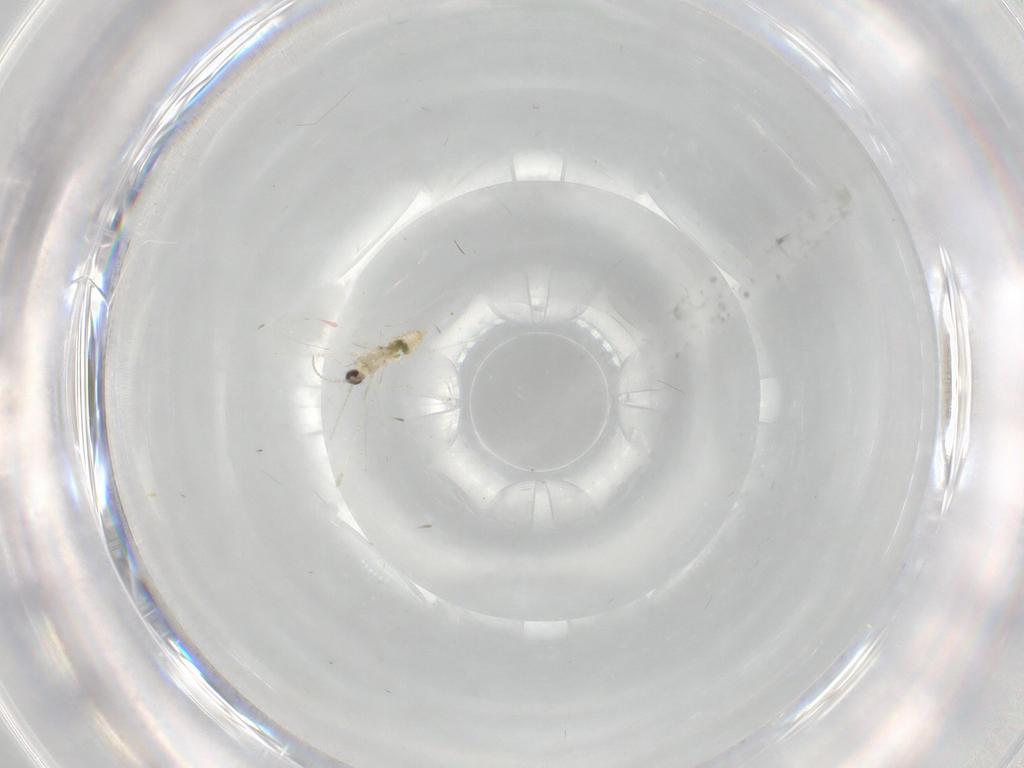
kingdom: Animalia
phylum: Arthropoda
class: Insecta
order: Diptera
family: Cecidomyiidae
